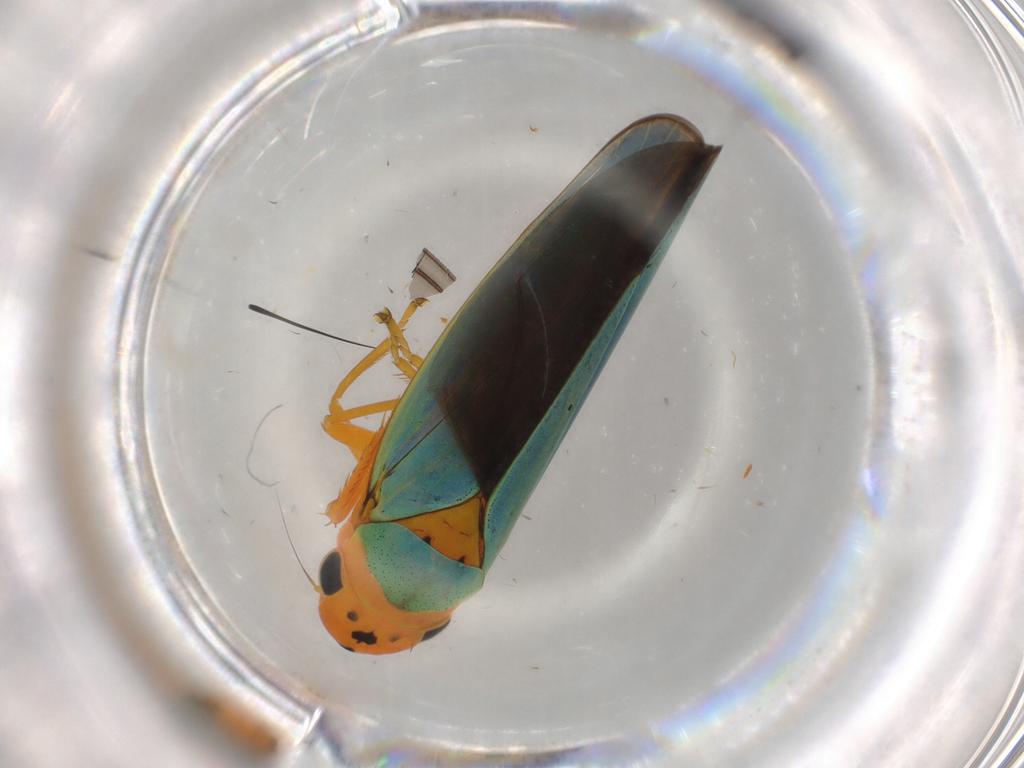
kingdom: Animalia
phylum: Arthropoda
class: Insecta
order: Hemiptera
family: Cicadellidae
